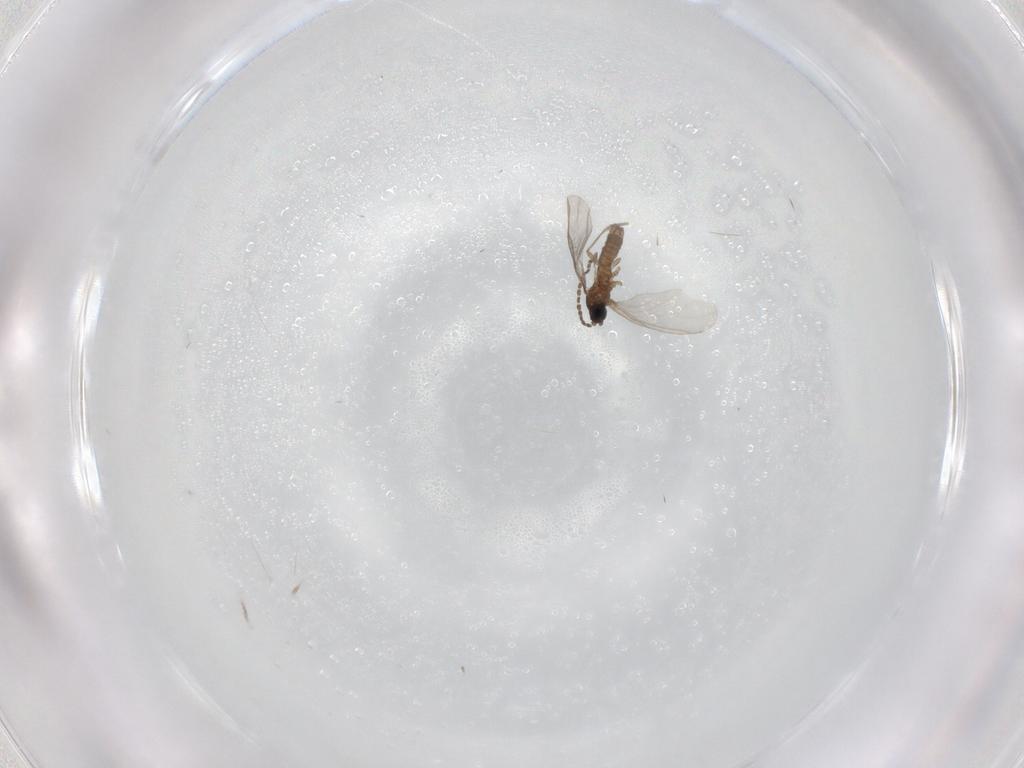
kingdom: Animalia
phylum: Arthropoda
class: Insecta
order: Diptera
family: Sciaridae
